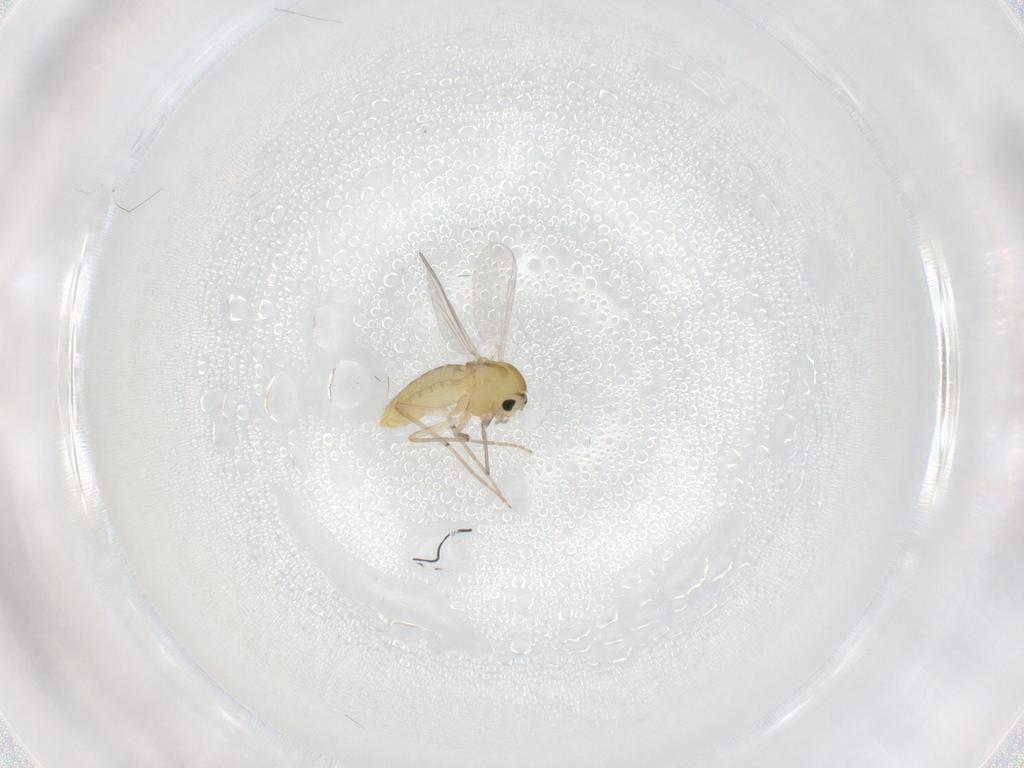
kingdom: Animalia
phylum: Arthropoda
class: Insecta
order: Diptera
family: Chironomidae
